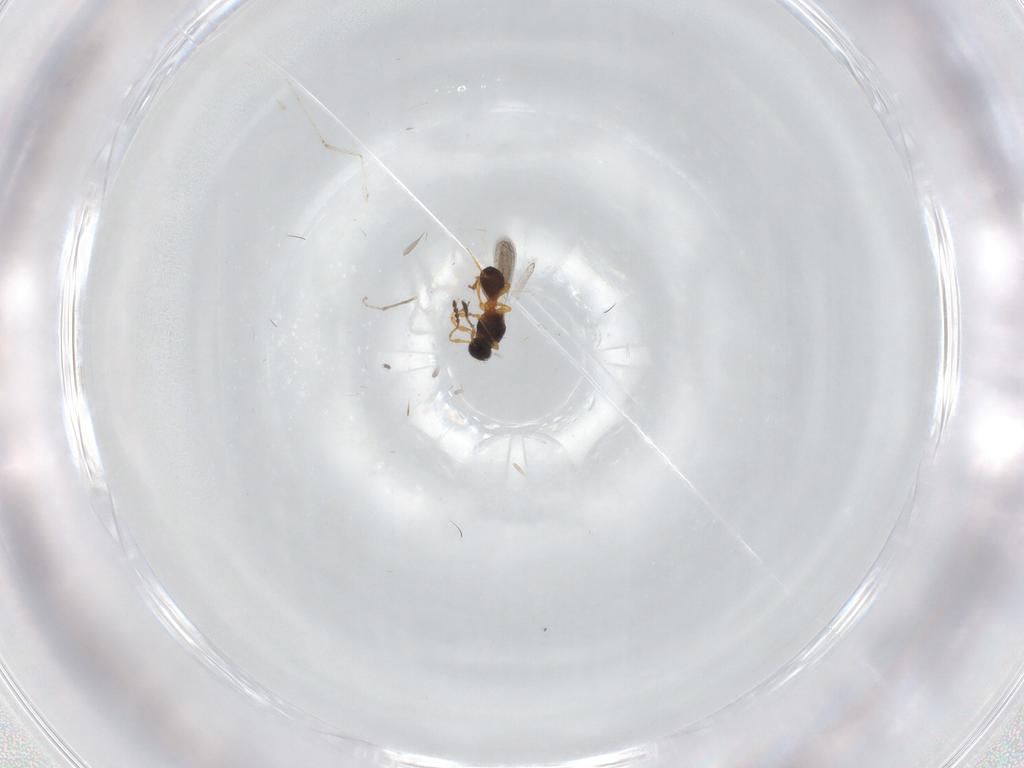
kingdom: Animalia
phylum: Arthropoda
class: Insecta
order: Hymenoptera
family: Platygastridae
